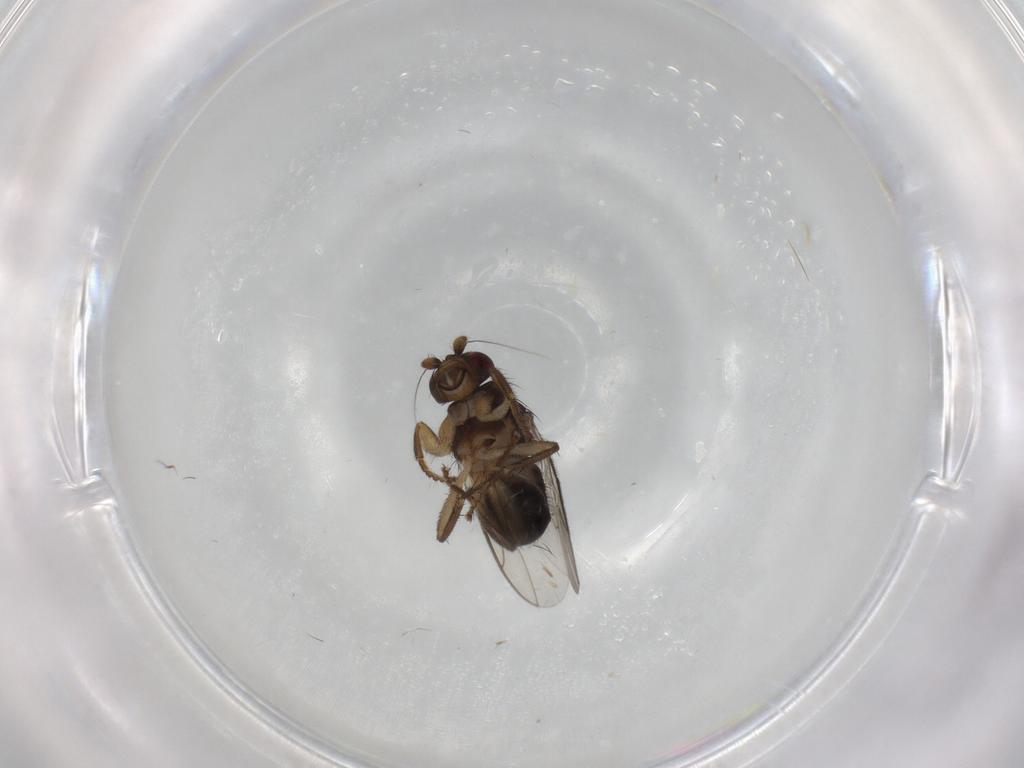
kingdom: Animalia
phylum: Arthropoda
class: Insecta
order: Diptera
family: Sphaeroceridae
